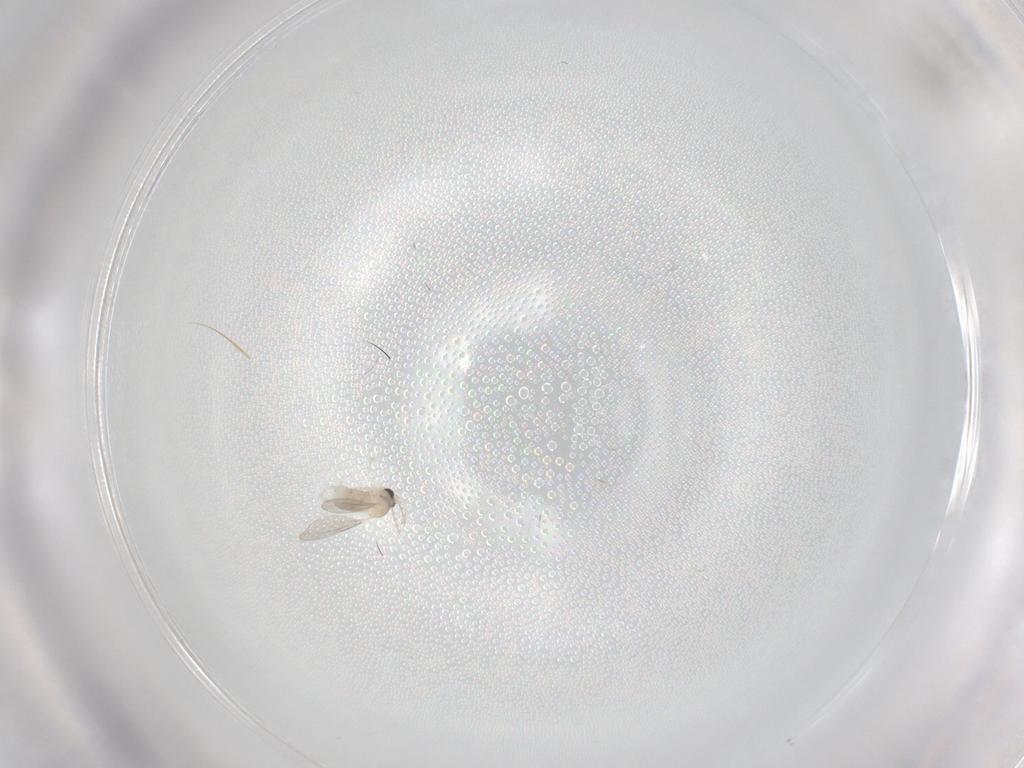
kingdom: Animalia
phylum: Arthropoda
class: Insecta
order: Diptera
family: Cecidomyiidae
